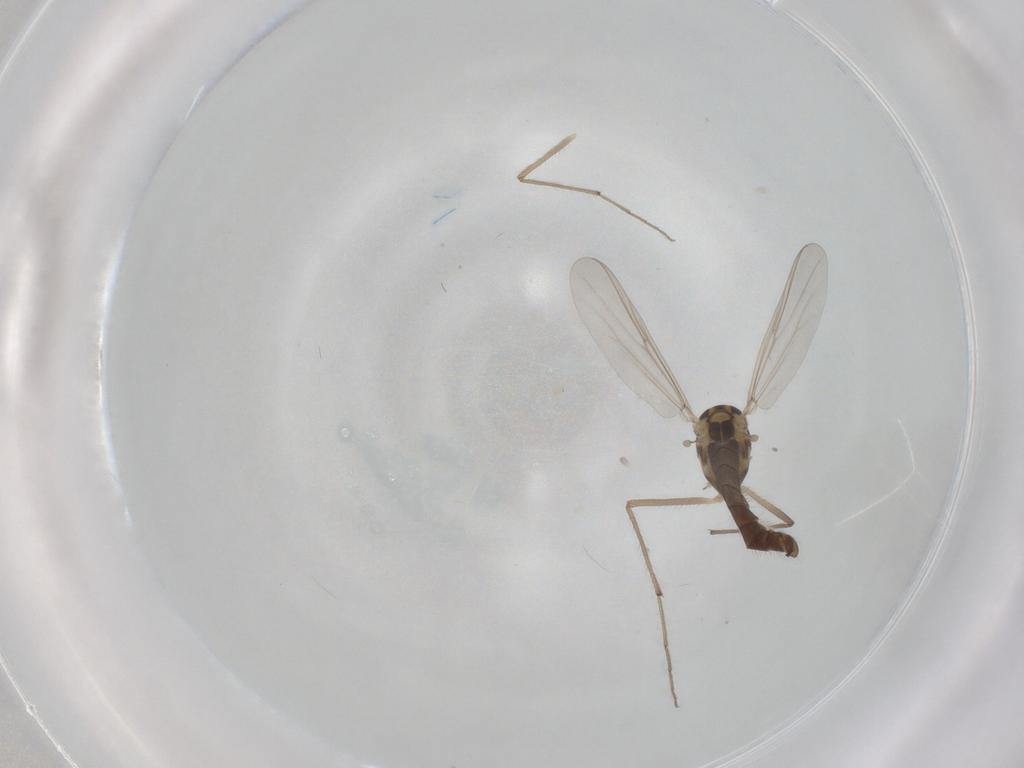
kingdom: Animalia
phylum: Arthropoda
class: Insecta
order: Diptera
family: Chironomidae
